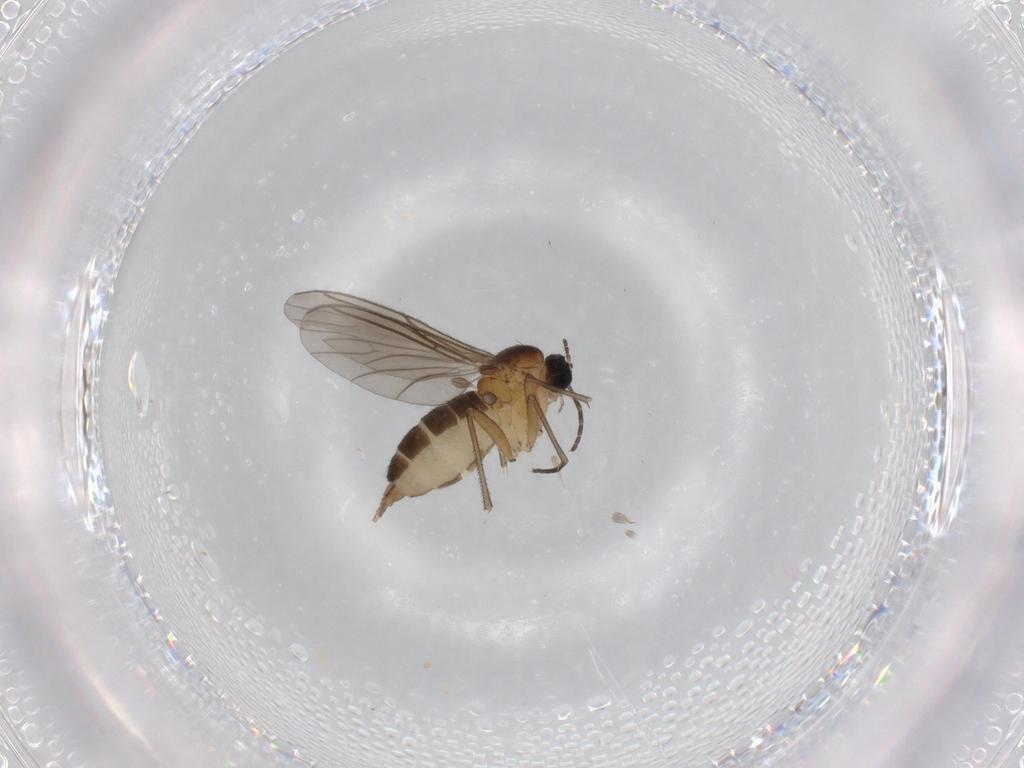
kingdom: Animalia
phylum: Arthropoda
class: Insecta
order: Diptera
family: Sciaridae
